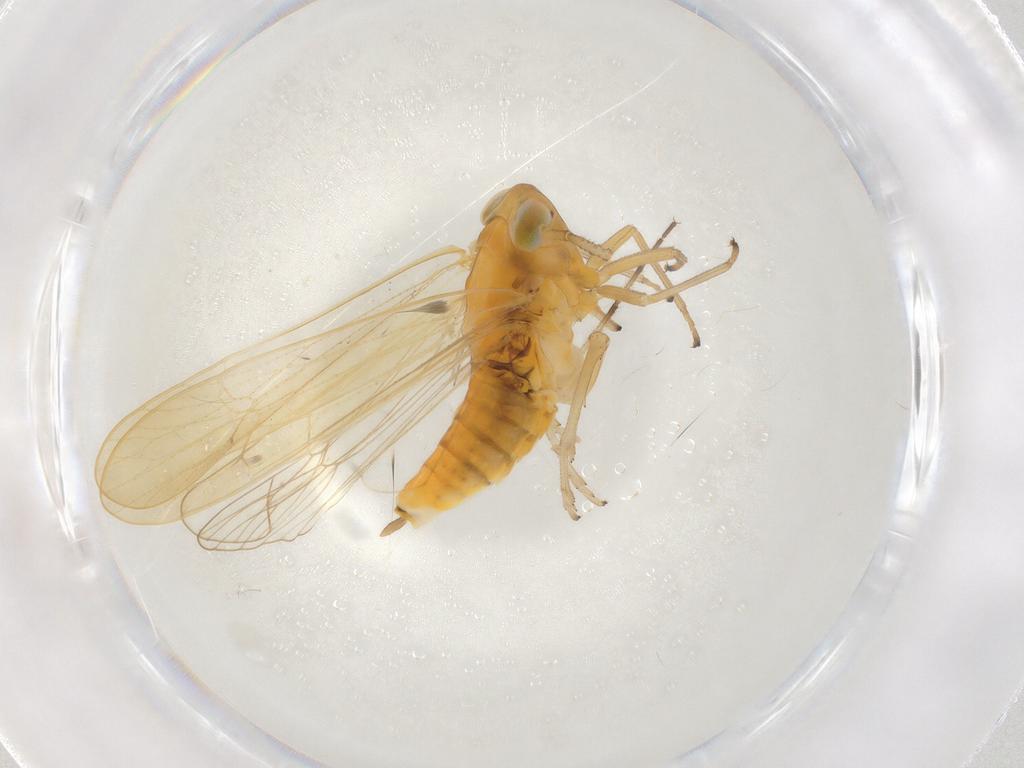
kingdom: Animalia
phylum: Arthropoda
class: Insecta
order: Hemiptera
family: Delphacidae
